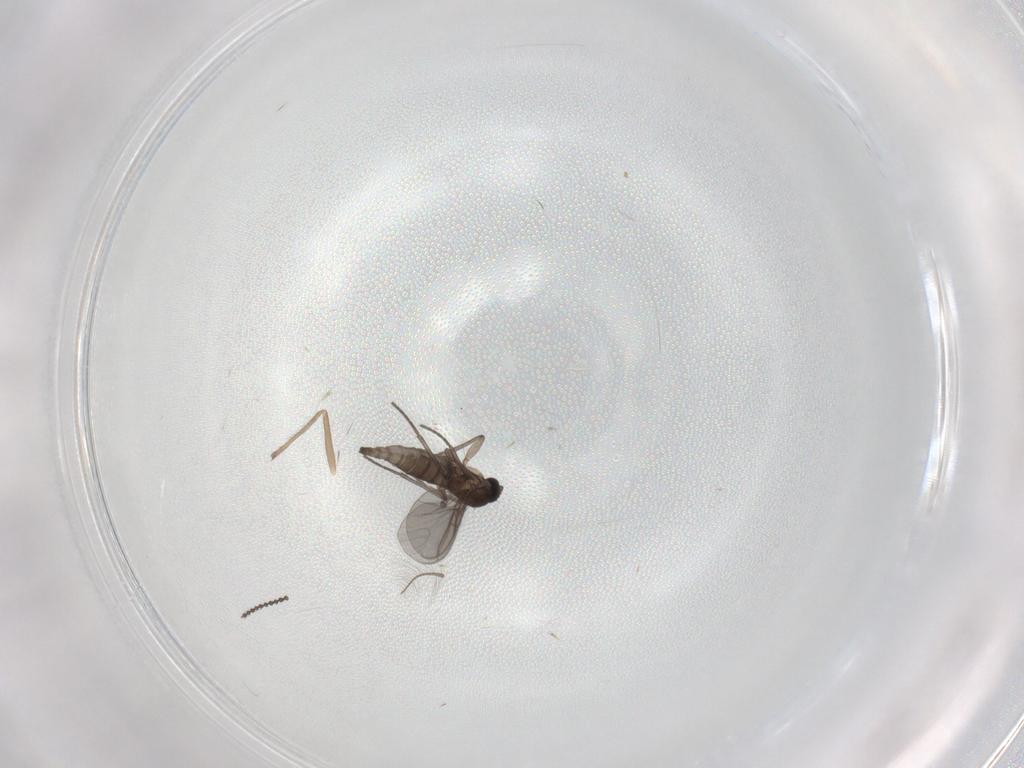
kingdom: Animalia
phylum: Arthropoda
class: Insecta
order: Diptera
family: Chironomidae
